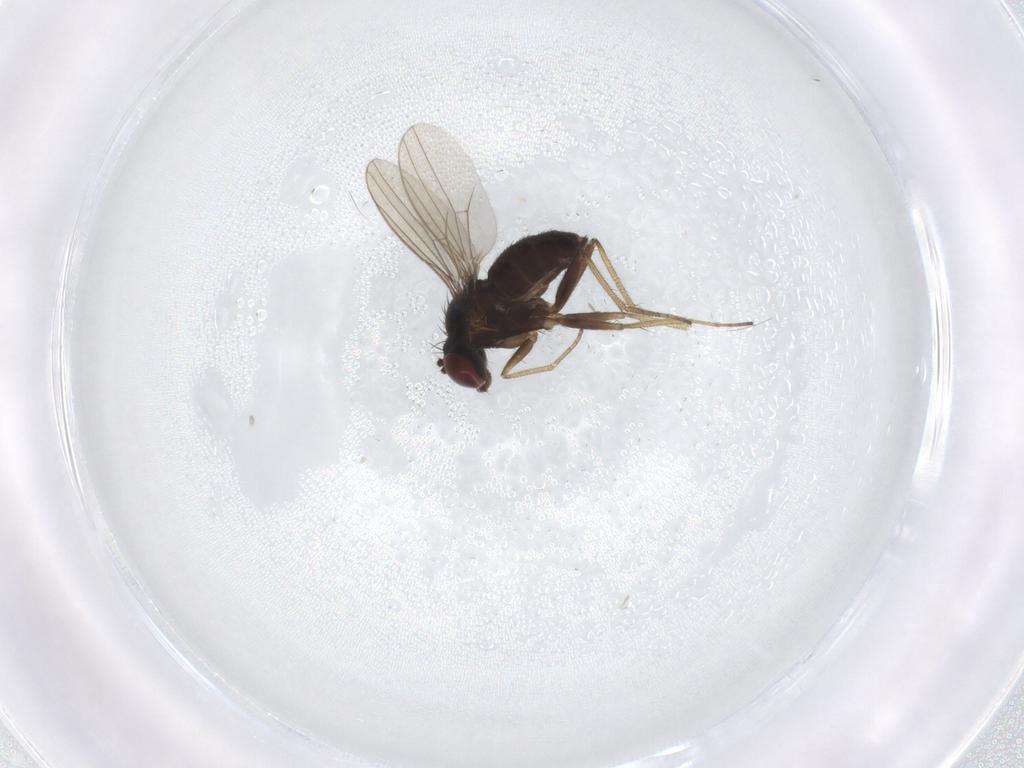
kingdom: Animalia
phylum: Arthropoda
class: Insecta
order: Diptera
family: Dolichopodidae
